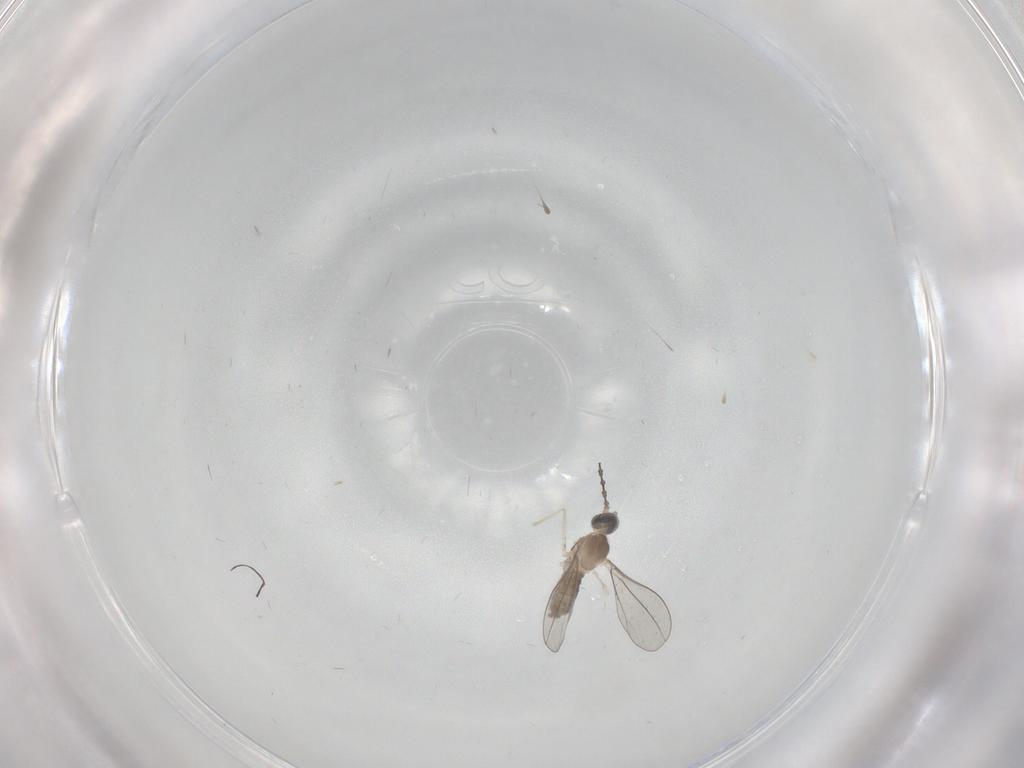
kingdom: Animalia
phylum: Arthropoda
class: Insecta
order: Diptera
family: Cecidomyiidae
